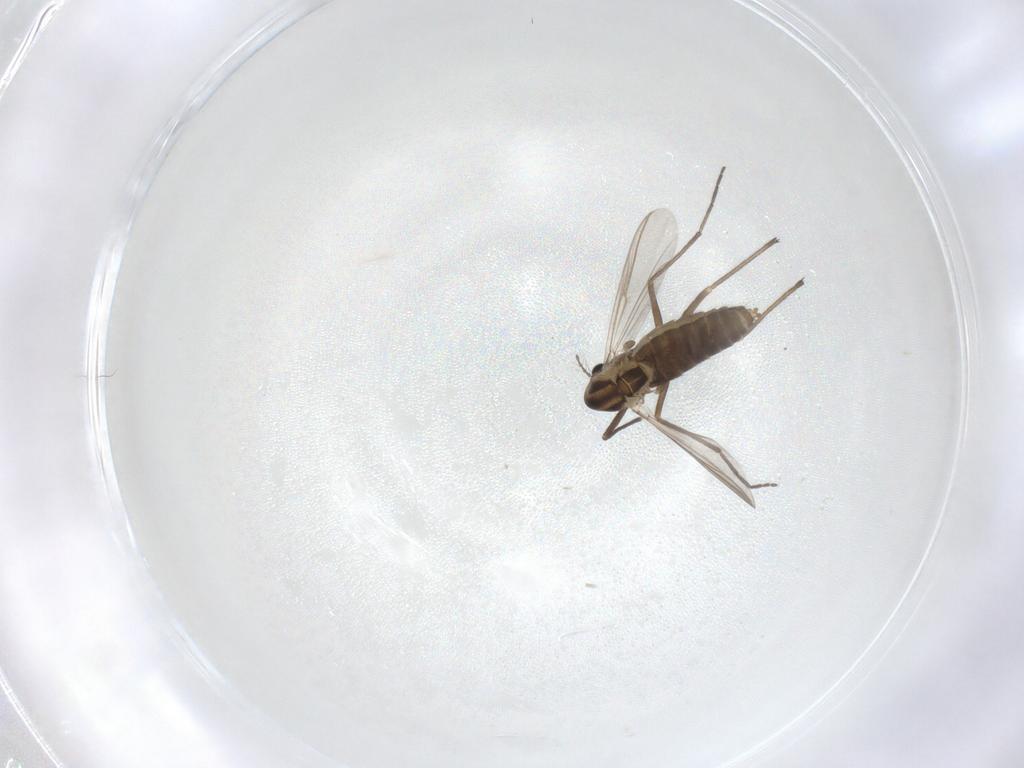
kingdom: Animalia
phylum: Arthropoda
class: Insecta
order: Diptera
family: Chironomidae
